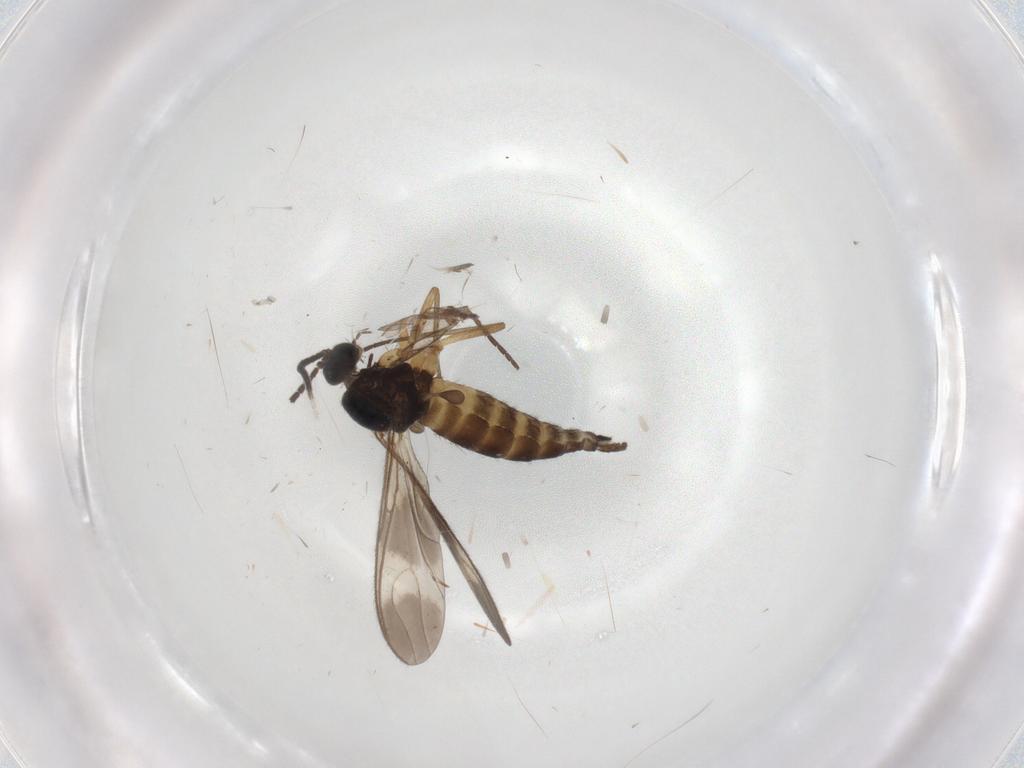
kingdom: Animalia
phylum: Arthropoda
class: Insecta
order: Diptera
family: Sciaridae
